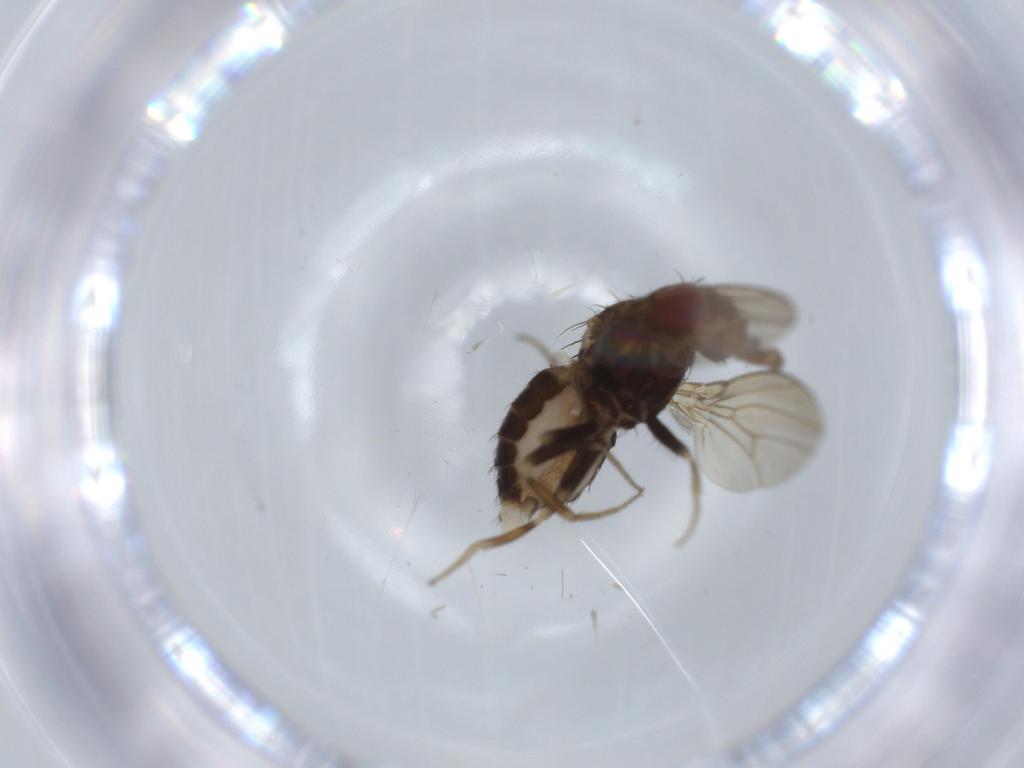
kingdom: Animalia
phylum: Arthropoda
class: Insecta
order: Diptera
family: Drosophilidae
